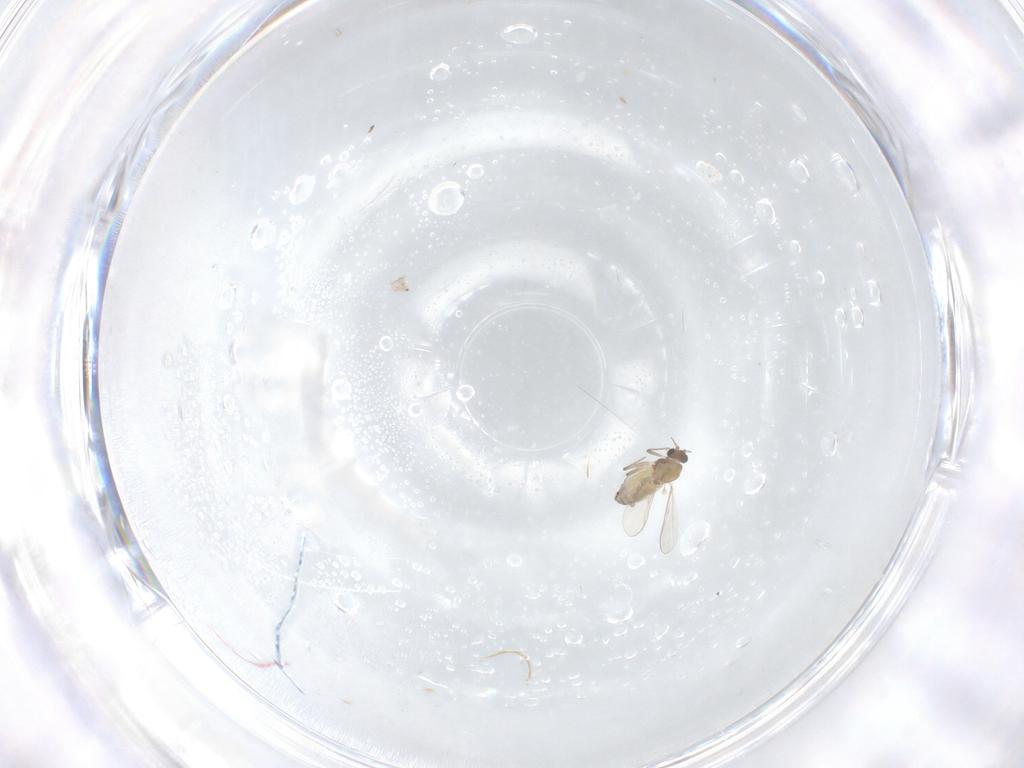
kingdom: Animalia
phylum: Arthropoda
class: Insecta
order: Diptera
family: Chironomidae
